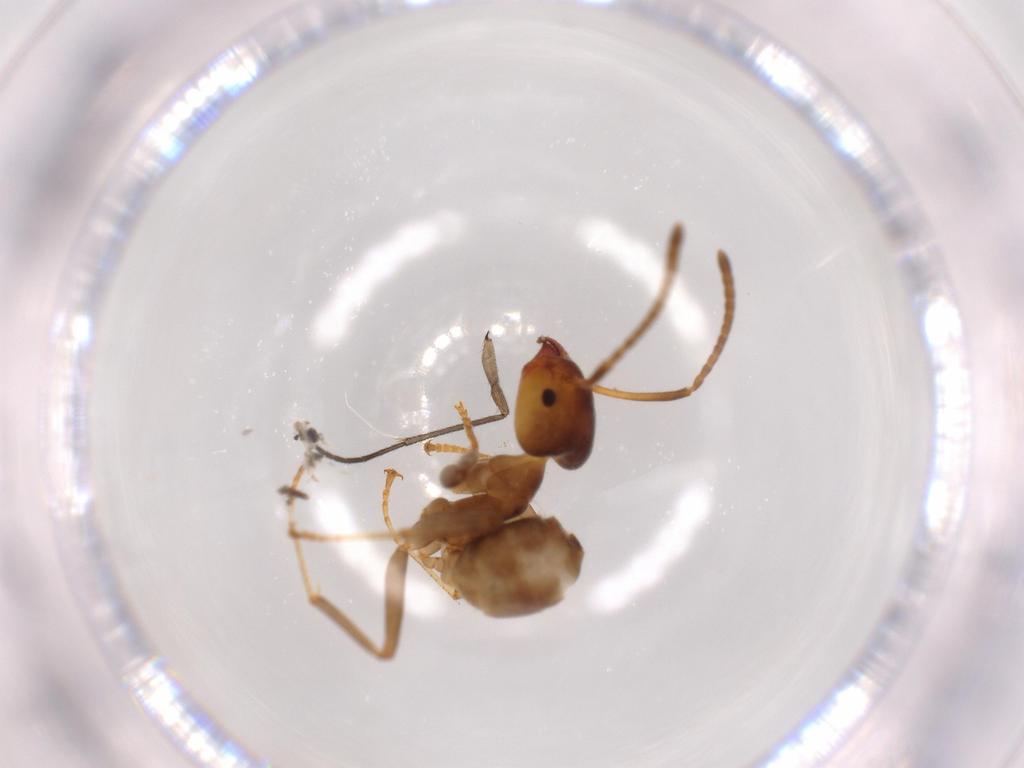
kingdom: Animalia
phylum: Arthropoda
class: Insecta
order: Hymenoptera
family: Formicidae
